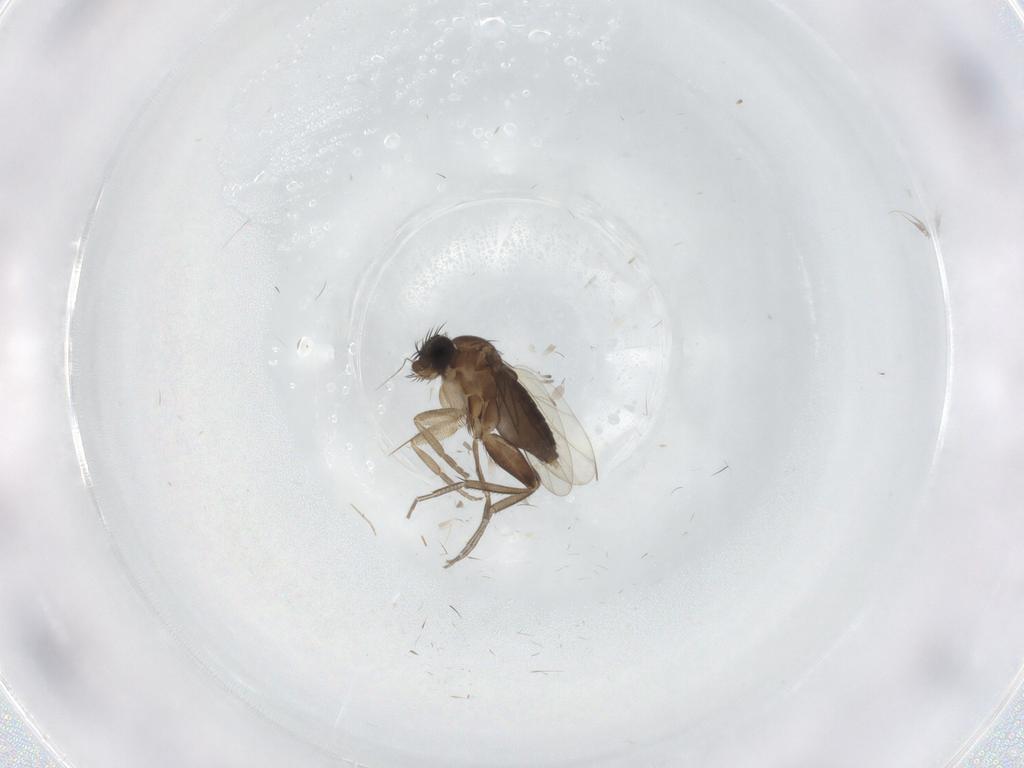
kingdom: Animalia
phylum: Arthropoda
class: Insecta
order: Diptera
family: Phoridae
